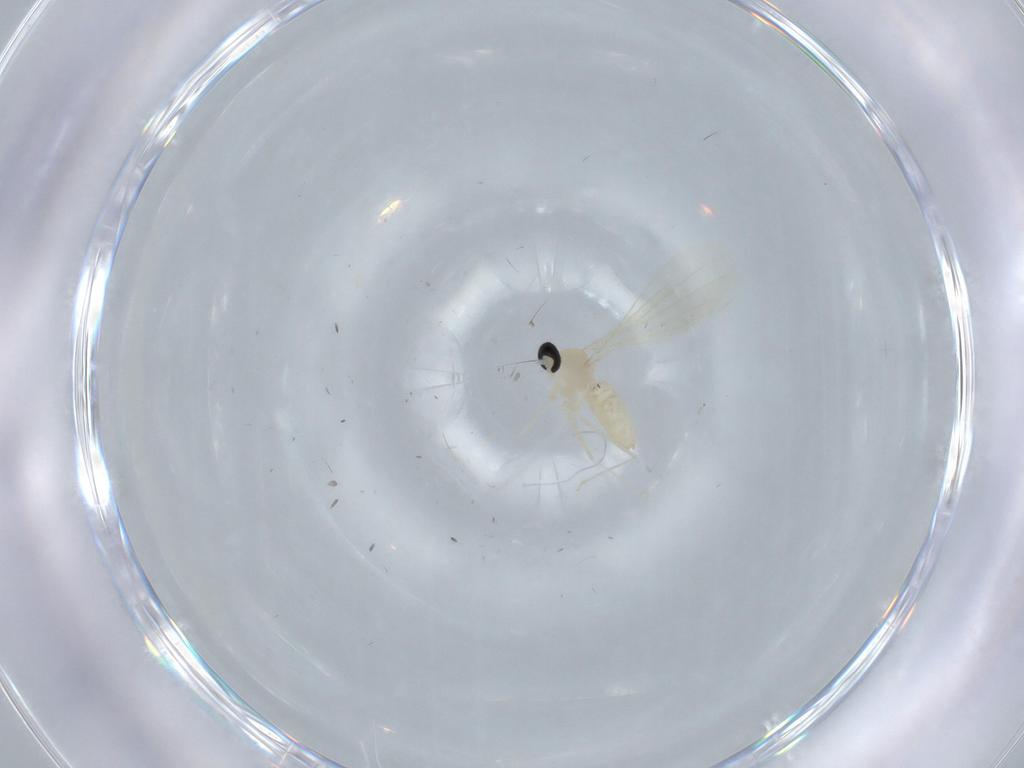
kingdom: Animalia
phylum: Arthropoda
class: Insecta
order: Diptera
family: Cecidomyiidae
